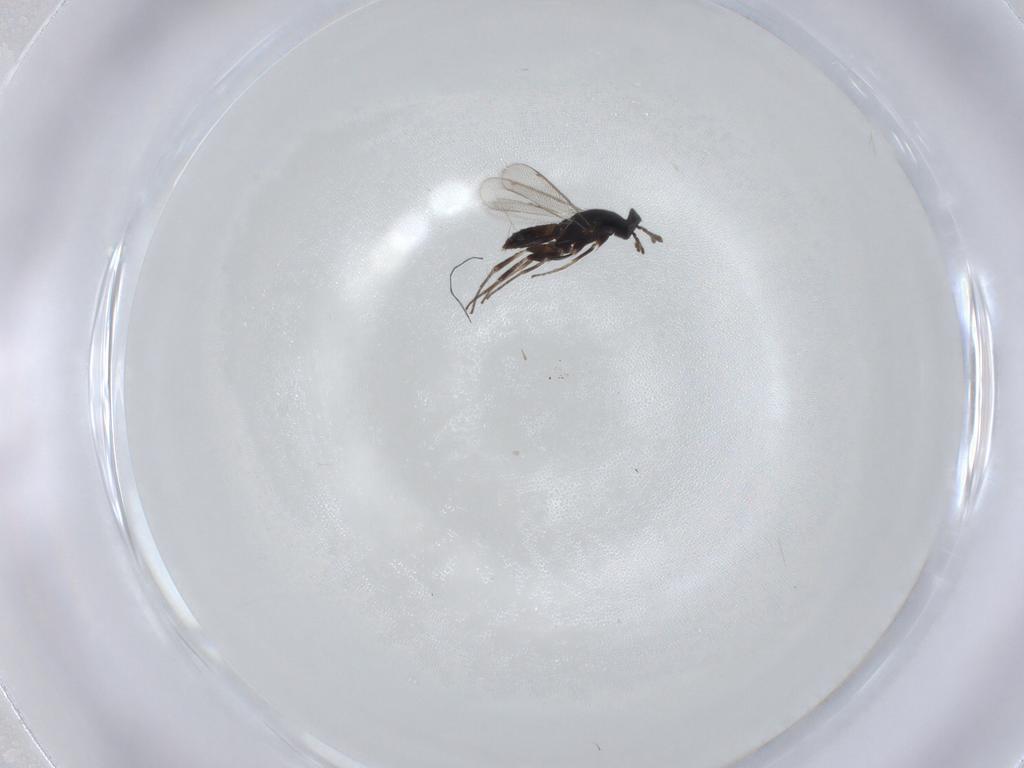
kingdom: Animalia
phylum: Arthropoda
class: Insecta
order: Hymenoptera
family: Eulophidae
